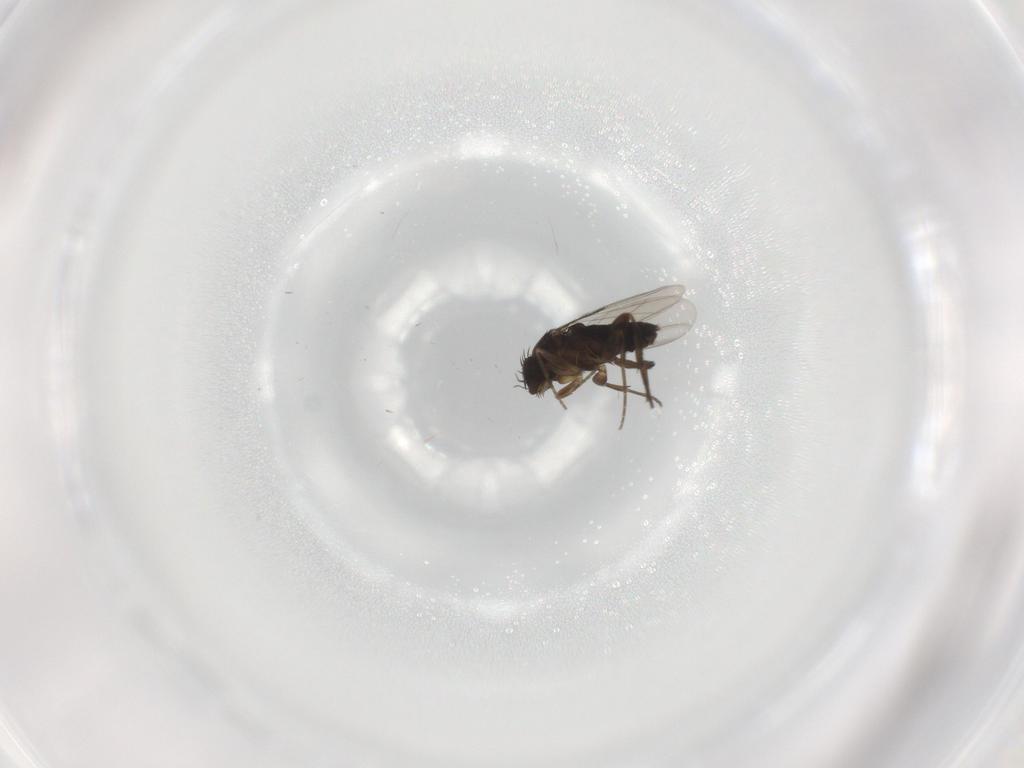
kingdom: Animalia
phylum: Arthropoda
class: Insecta
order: Diptera
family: Phoridae
